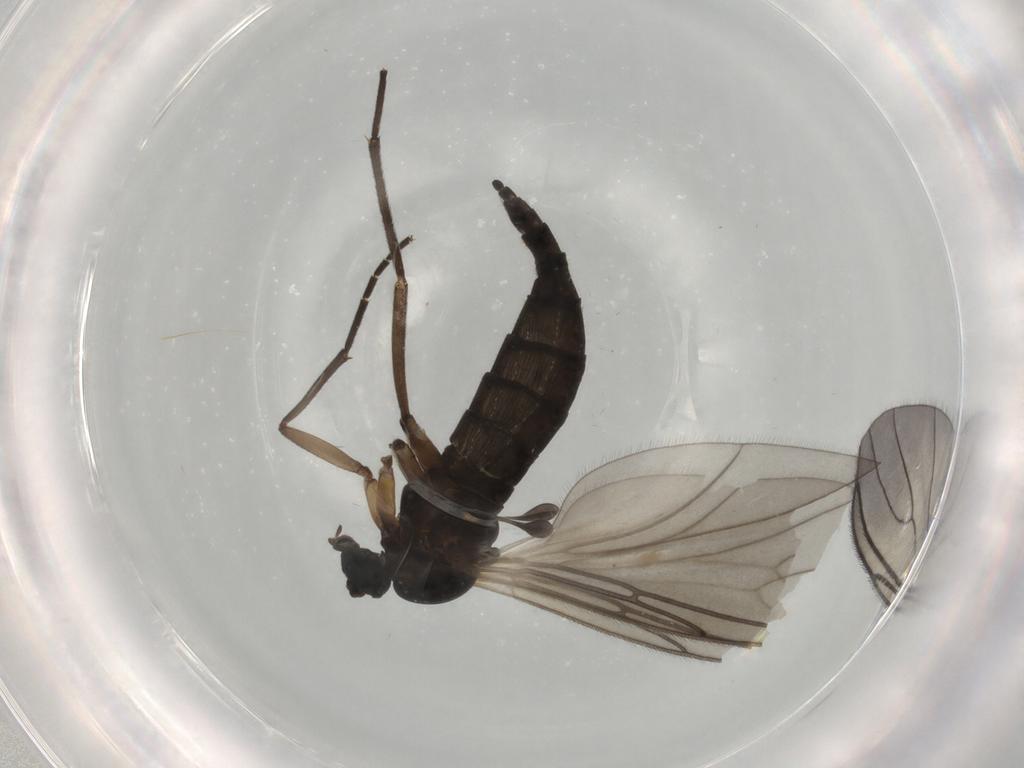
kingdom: Animalia
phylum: Arthropoda
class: Insecta
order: Diptera
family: Sciaridae
